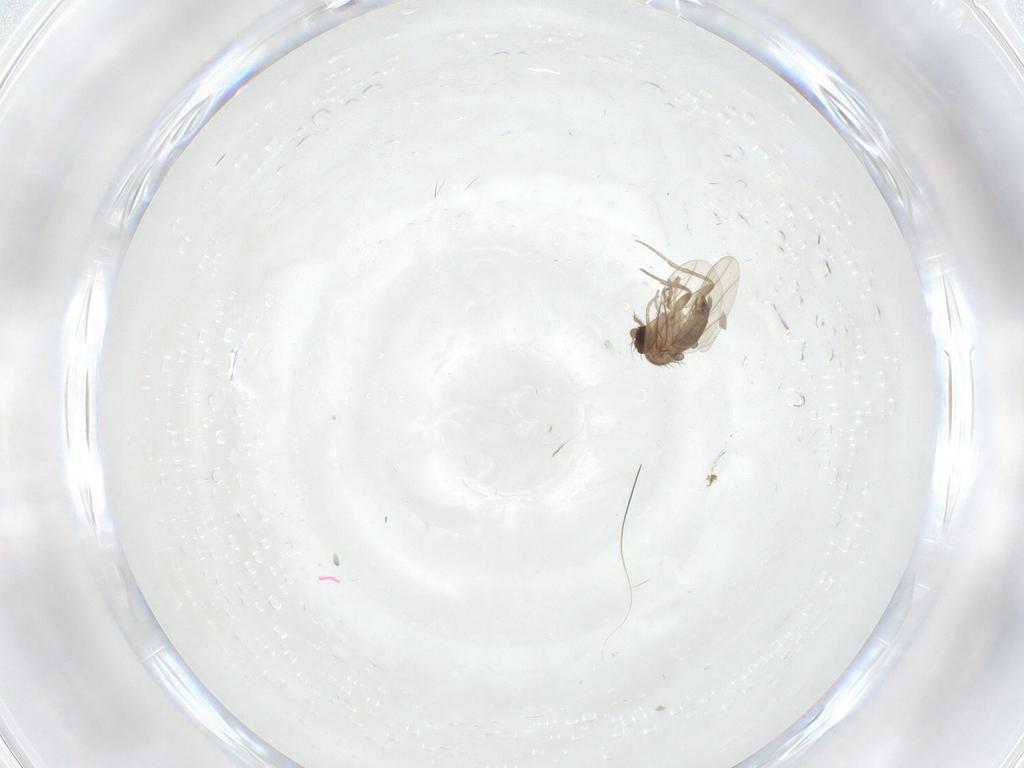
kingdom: Animalia
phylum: Arthropoda
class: Insecta
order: Diptera
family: Phoridae
